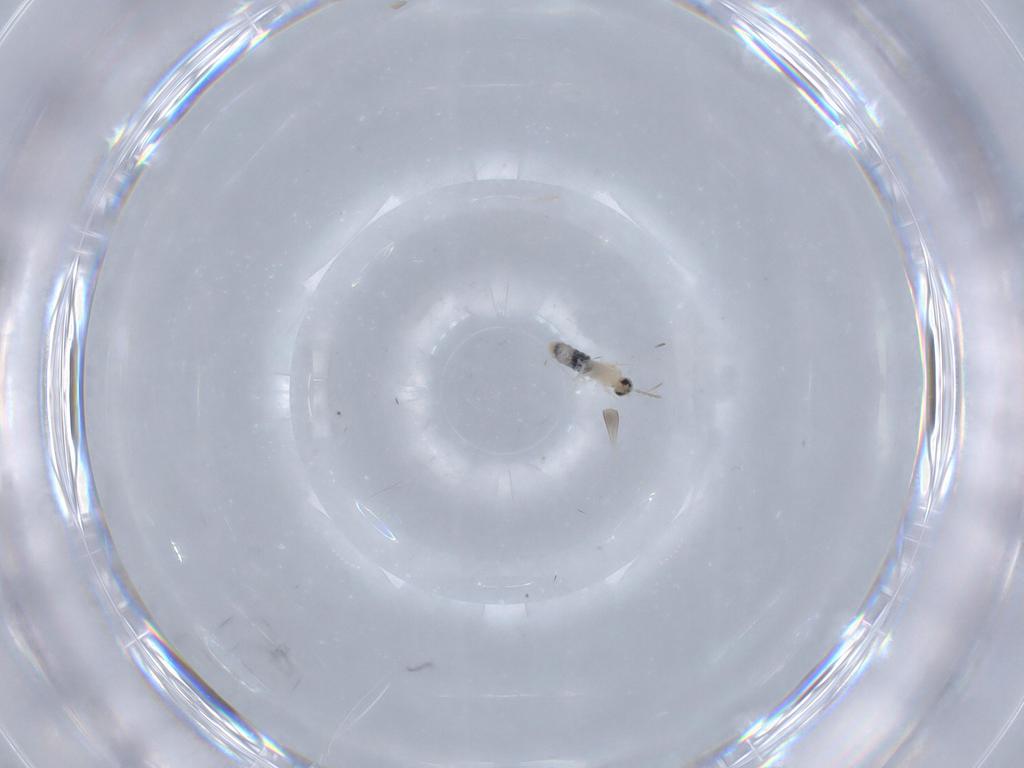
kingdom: Animalia
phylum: Arthropoda
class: Insecta
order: Diptera
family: Cecidomyiidae
